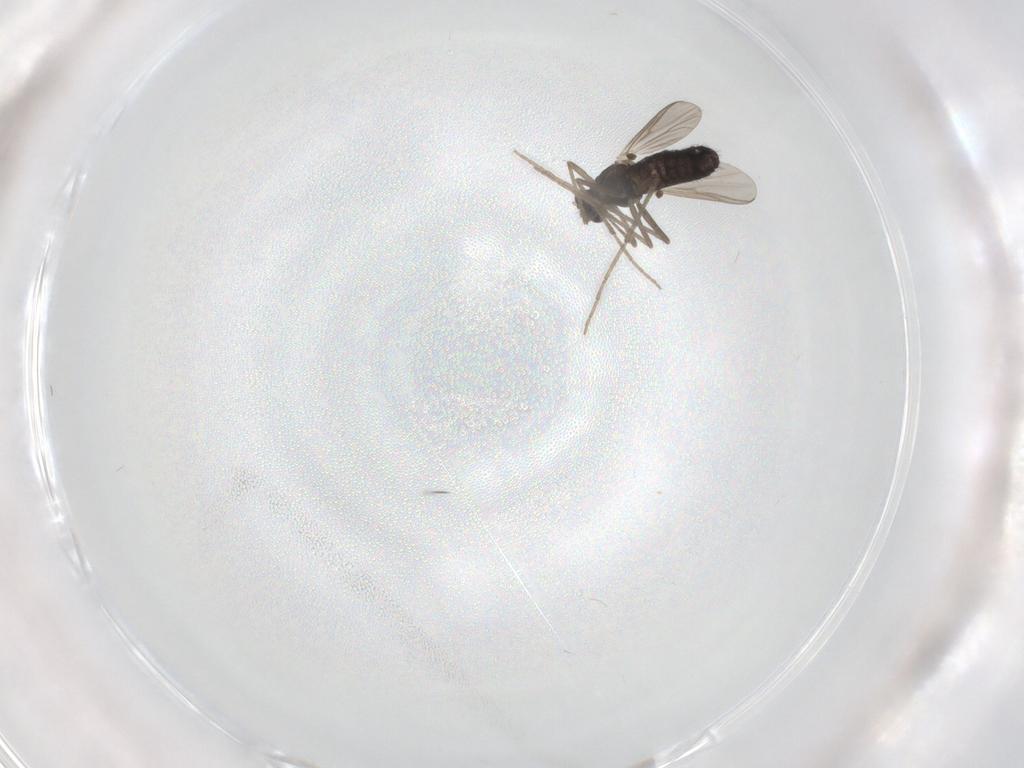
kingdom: Animalia
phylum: Arthropoda
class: Insecta
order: Diptera
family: Chironomidae
